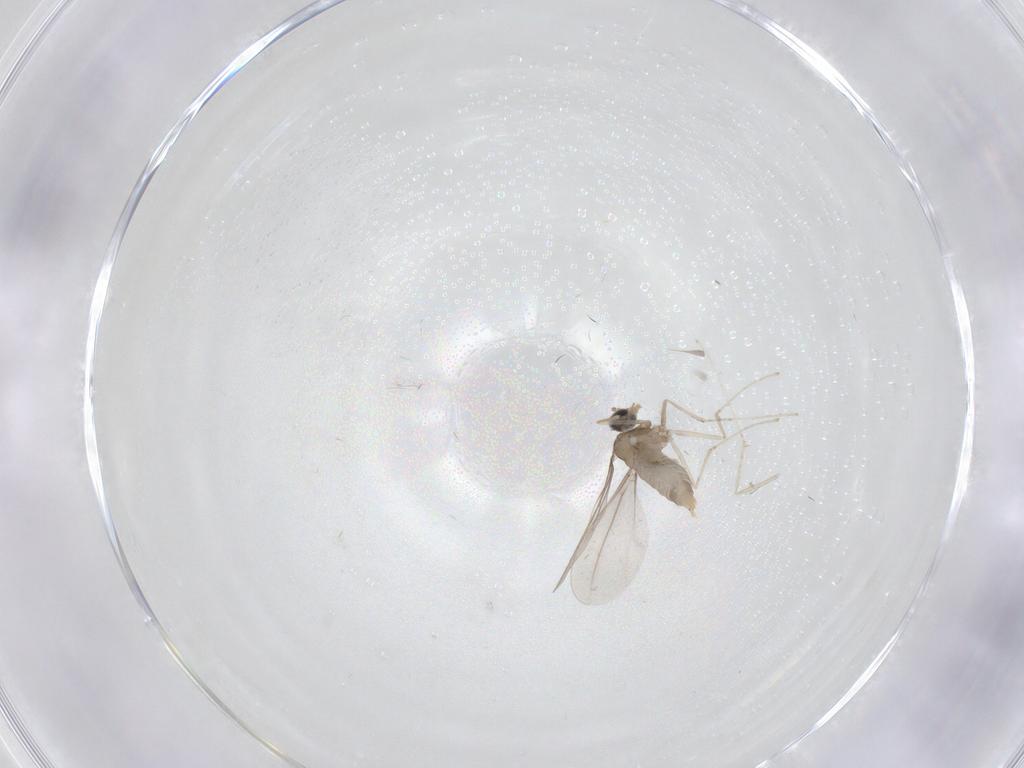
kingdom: Animalia
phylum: Arthropoda
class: Insecta
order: Diptera
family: Cecidomyiidae
